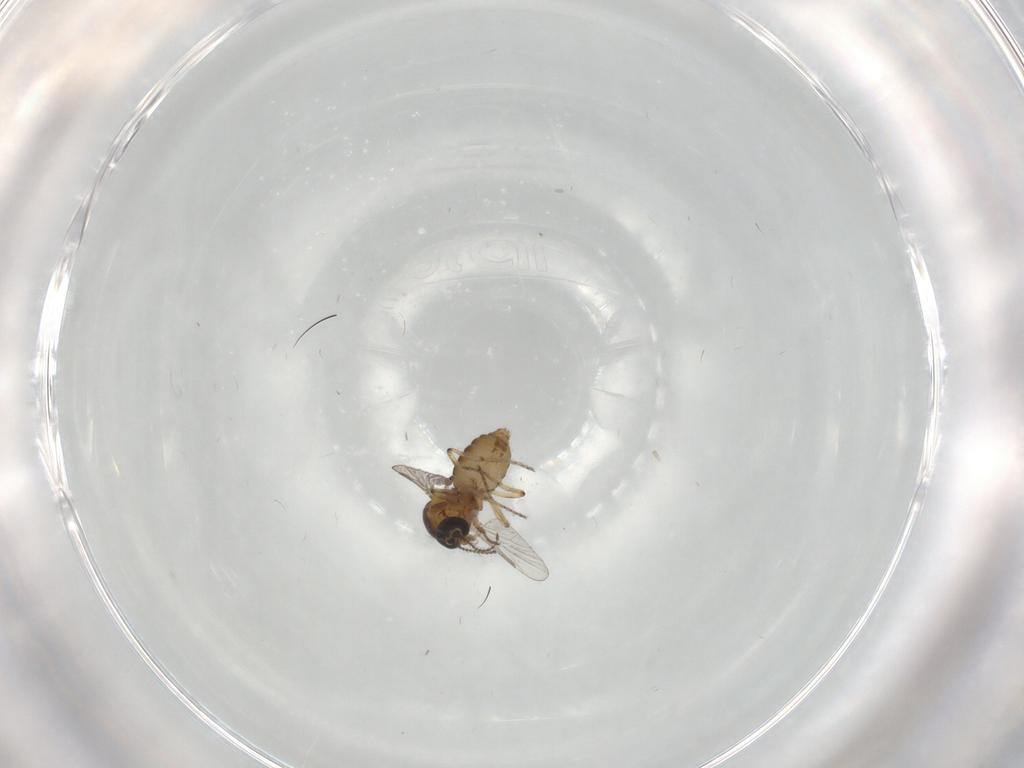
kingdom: Animalia
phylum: Arthropoda
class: Insecta
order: Diptera
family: Ceratopogonidae
